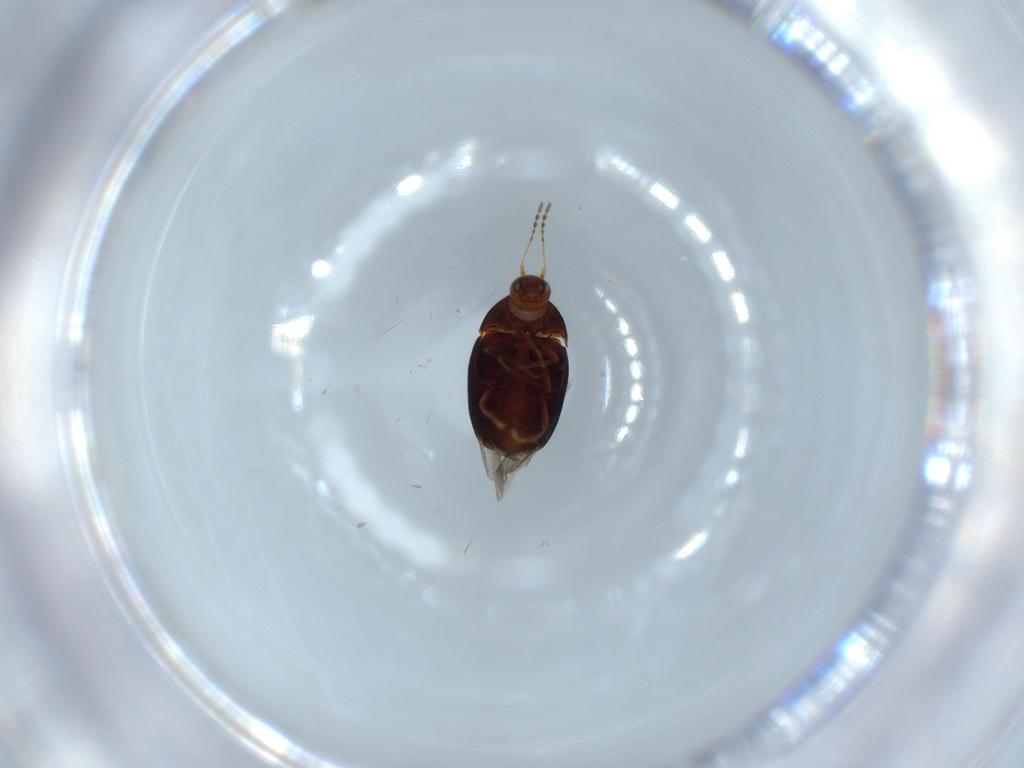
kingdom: Animalia
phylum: Arthropoda
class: Insecta
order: Coleoptera
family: Staphylinidae
